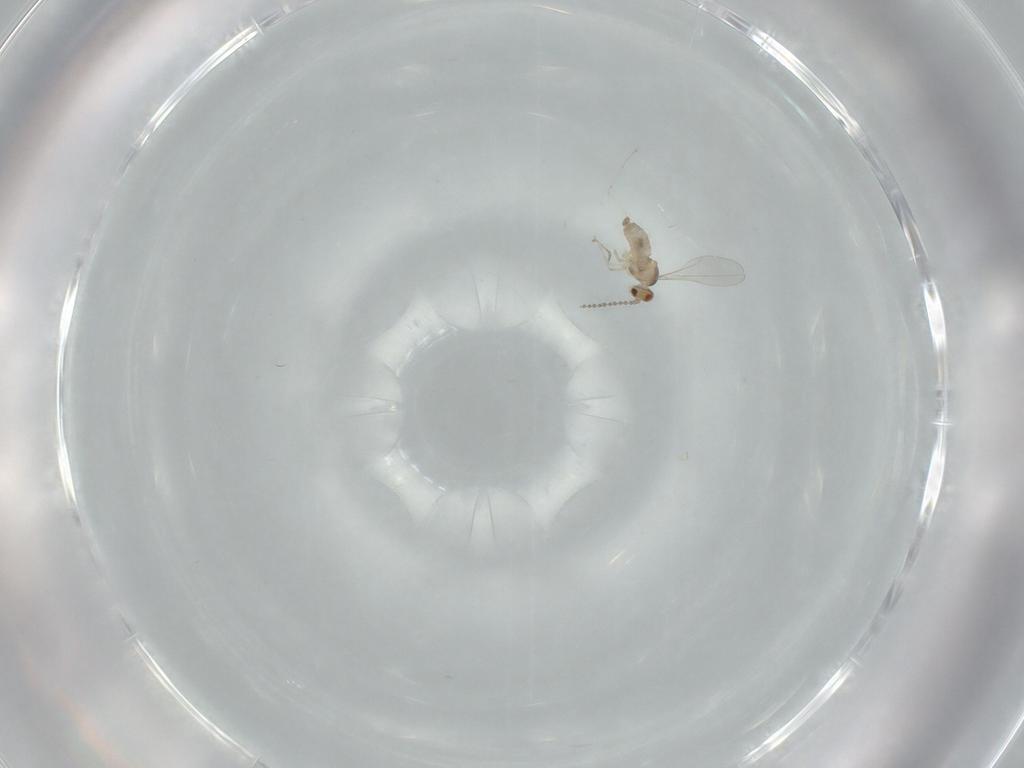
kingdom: Animalia
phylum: Arthropoda
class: Insecta
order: Diptera
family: Cecidomyiidae
